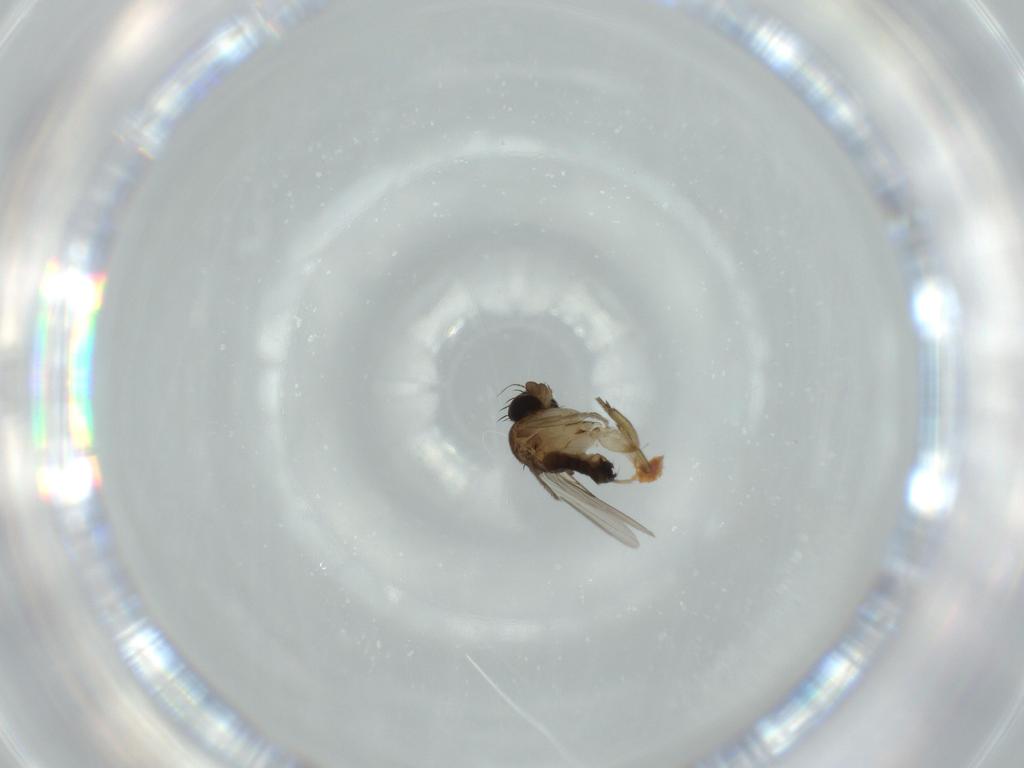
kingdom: Animalia
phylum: Arthropoda
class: Insecta
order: Diptera
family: Phoridae
